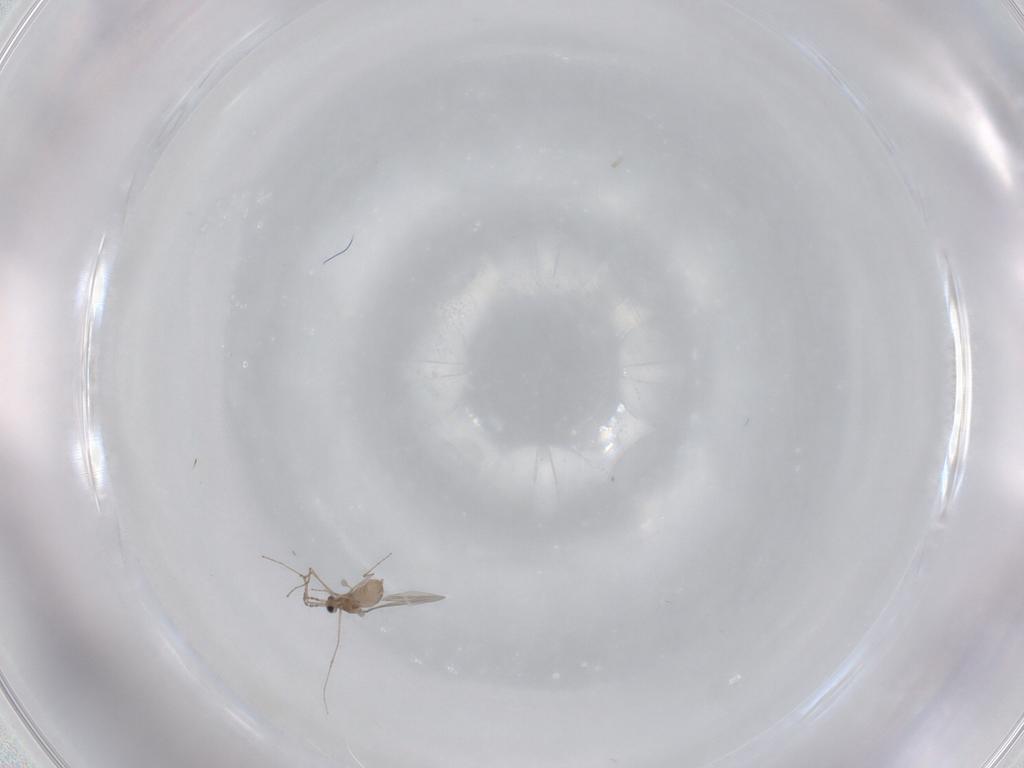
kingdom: Animalia
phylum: Arthropoda
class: Insecta
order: Diptera
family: Cecidomyiidae
